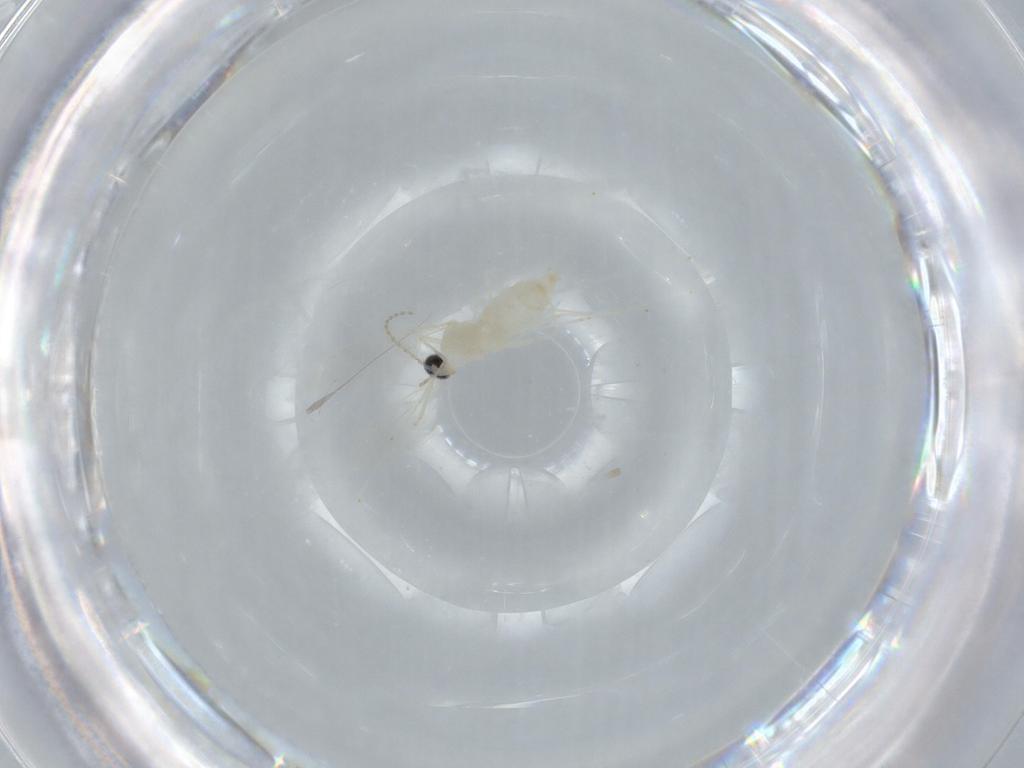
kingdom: Animalia
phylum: Arthropoda
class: Insecta
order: Diptera
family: Cecidomyiidae
